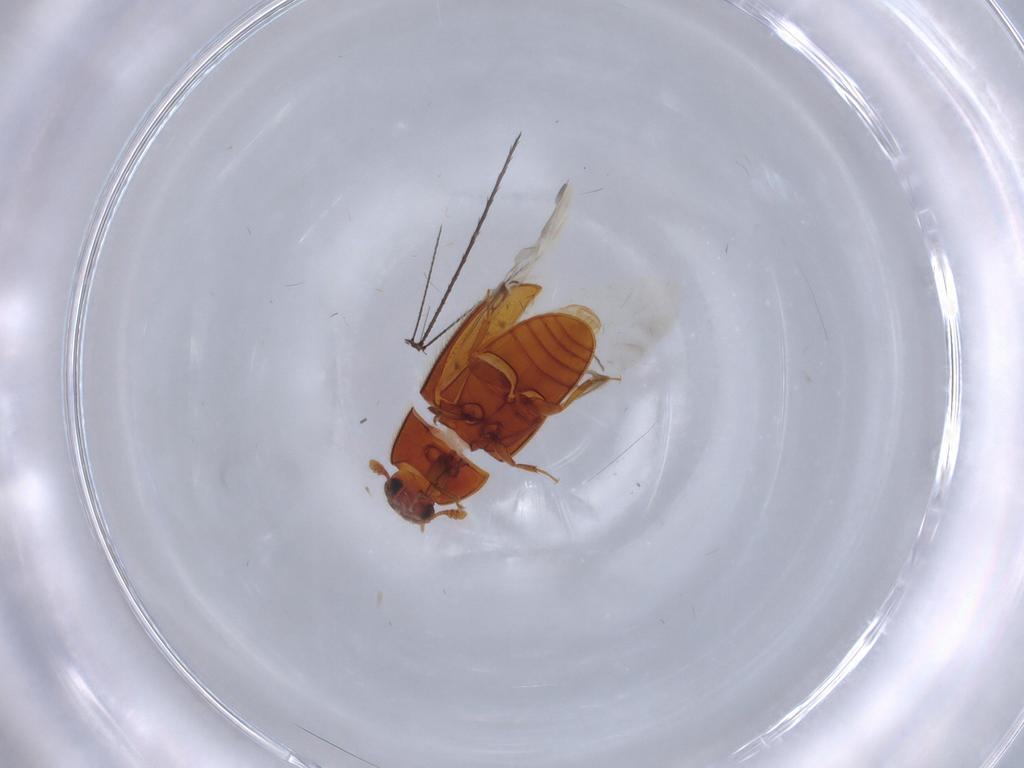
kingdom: Animalia
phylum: Arthropoda
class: Insecta
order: Coleoptera
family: Biphyllidae
